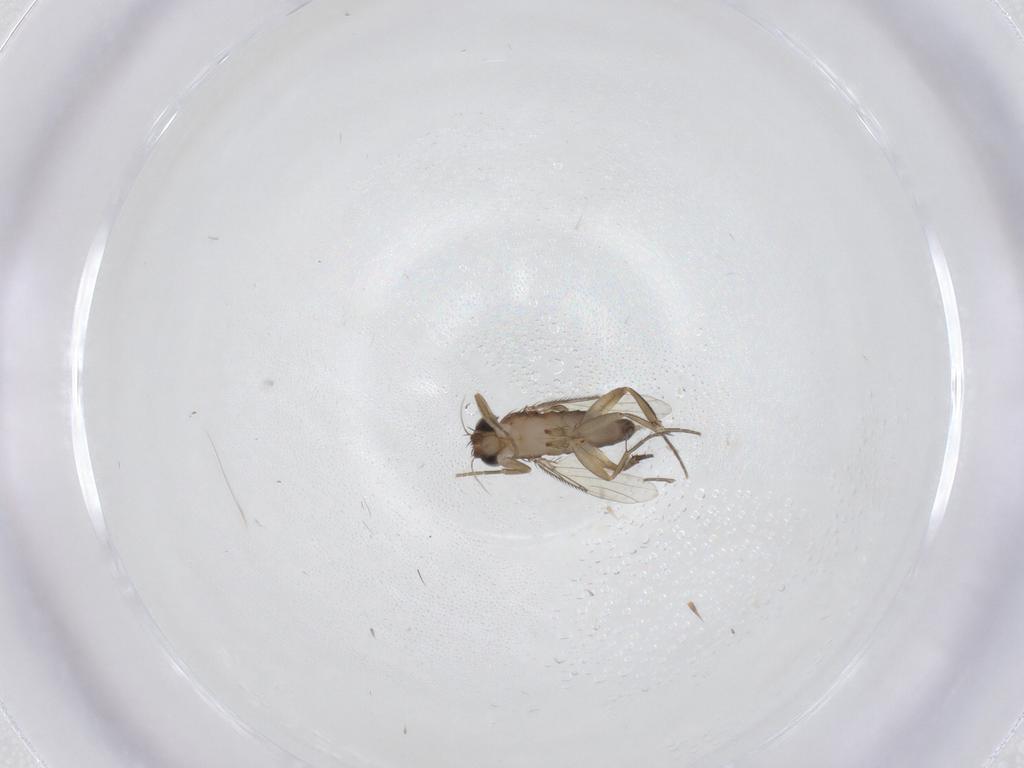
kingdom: Animalia
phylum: Arthropoda
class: Insecta
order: Diptera
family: Phoridae
